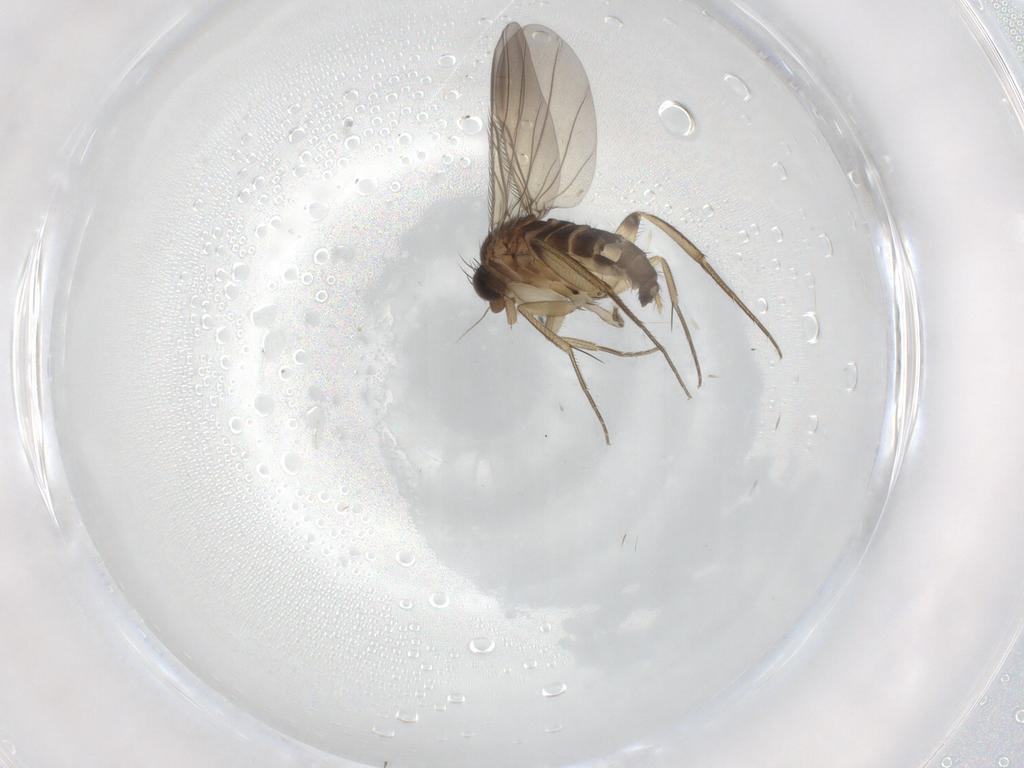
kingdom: Animalia
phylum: Arthropoda
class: Insecta
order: Diptera
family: Phoridae
